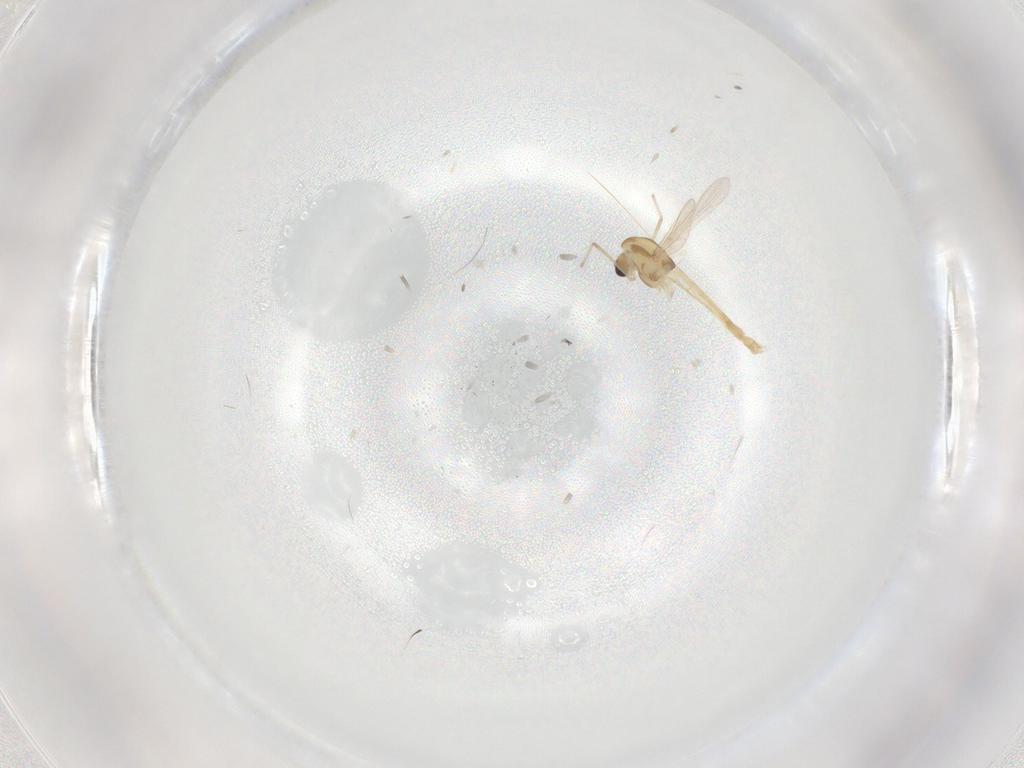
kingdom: Animalia
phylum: Arthropoda
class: Insecta
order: Diptera
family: Chironomidae
